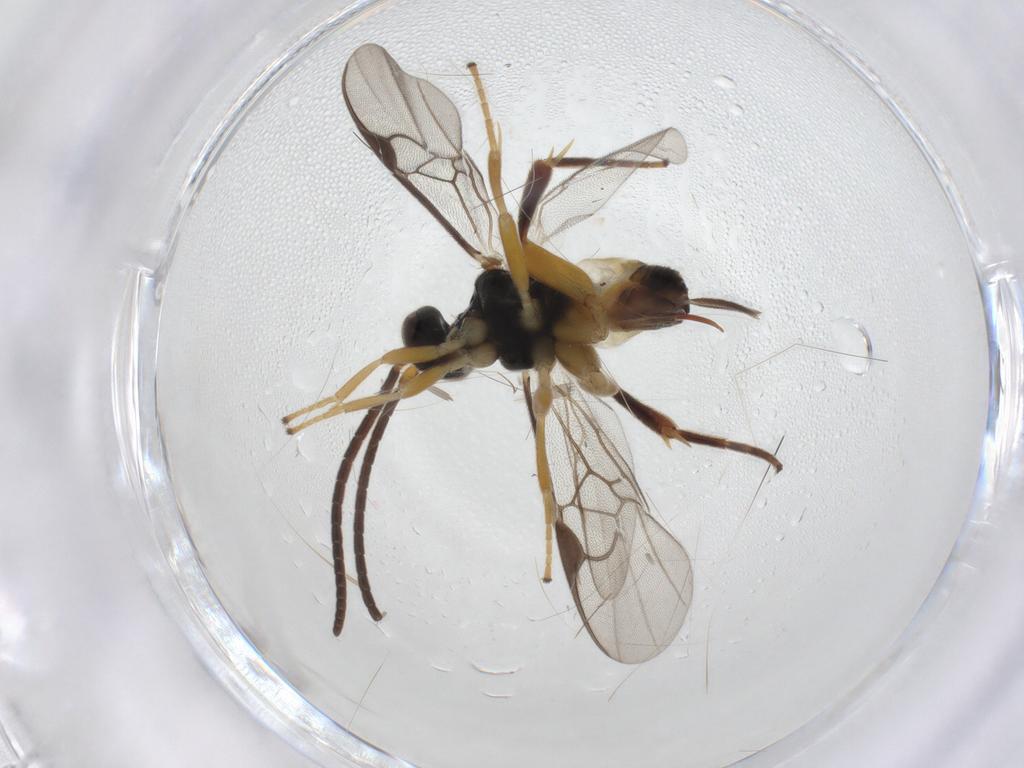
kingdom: Animalia
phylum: Arthropoda
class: Insecta
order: Hymenoptera
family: Braconidae
